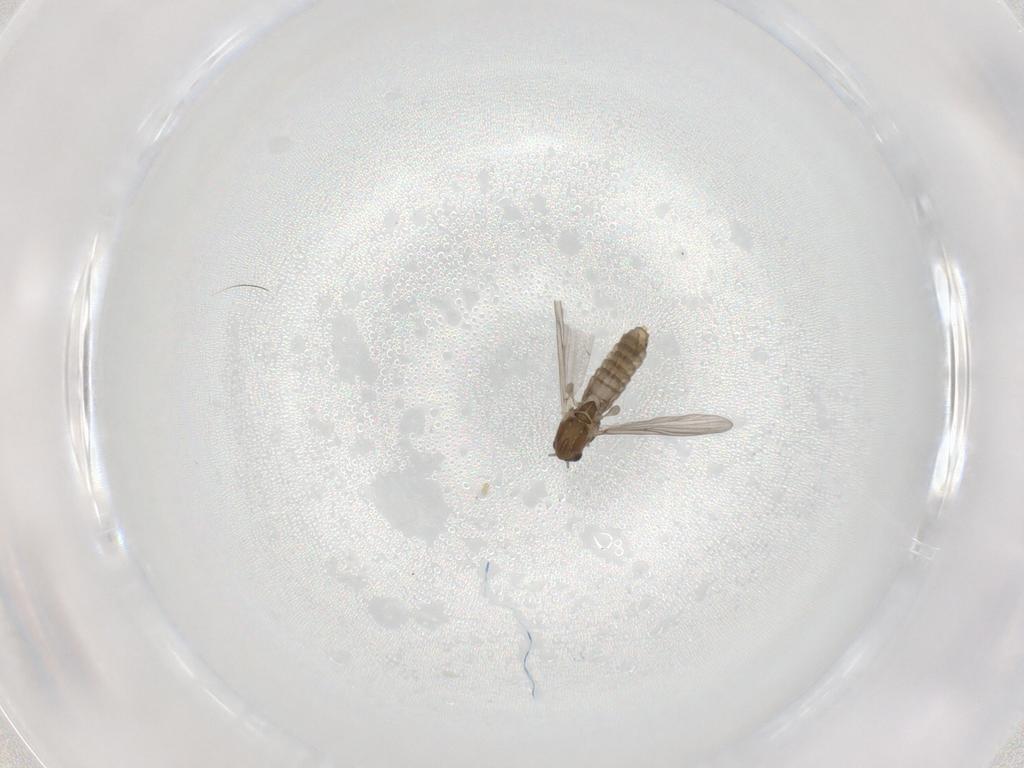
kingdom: Animalia
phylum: Arthropoda
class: Insecta
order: Diptera
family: Chironomidae
